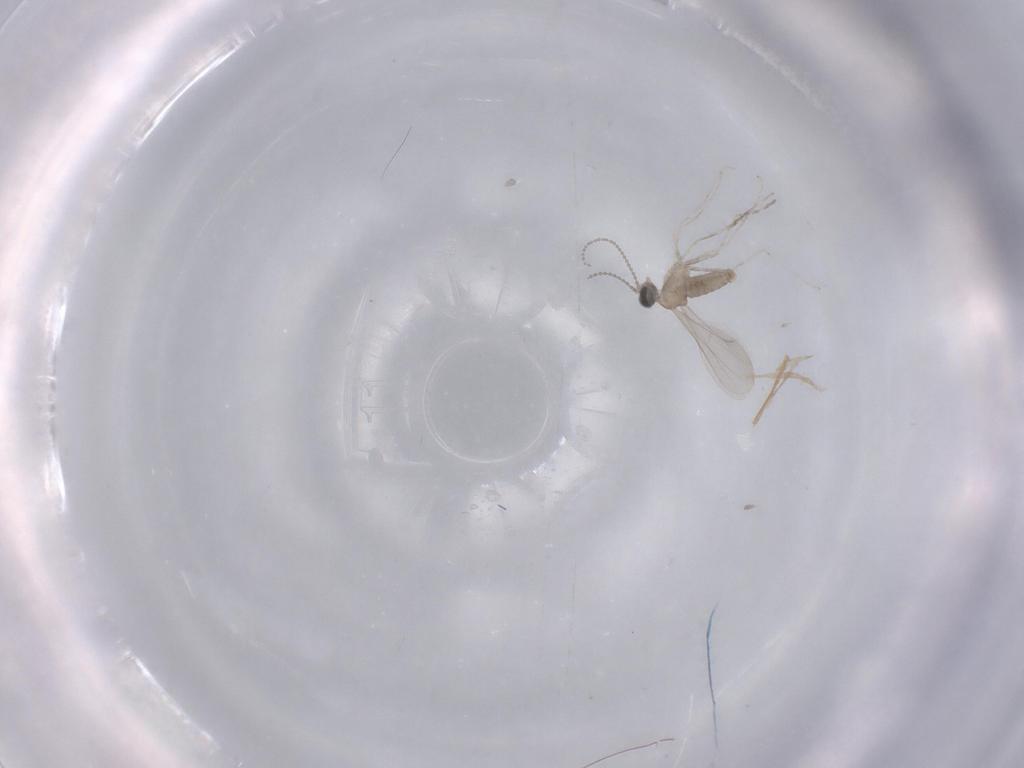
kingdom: Animalia
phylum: Arthropoda
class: Insecta
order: Diptera
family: Cecidomyiidae
